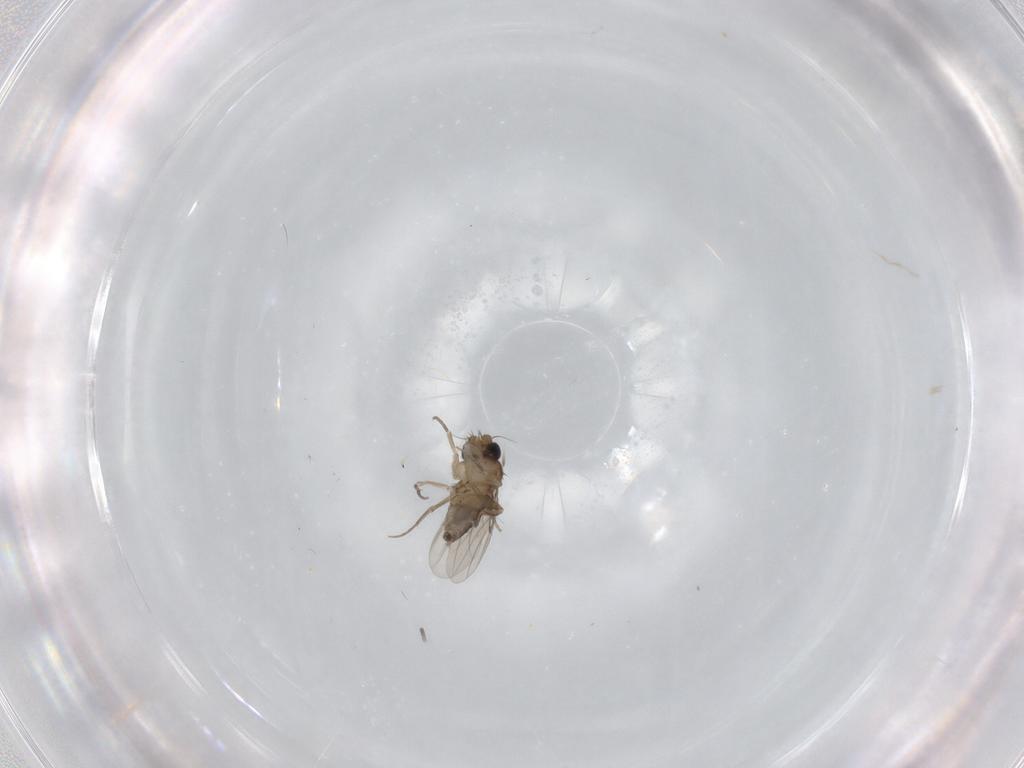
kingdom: Animalia
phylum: Arthropoda
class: Insecta
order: Diptera
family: Phoridae
